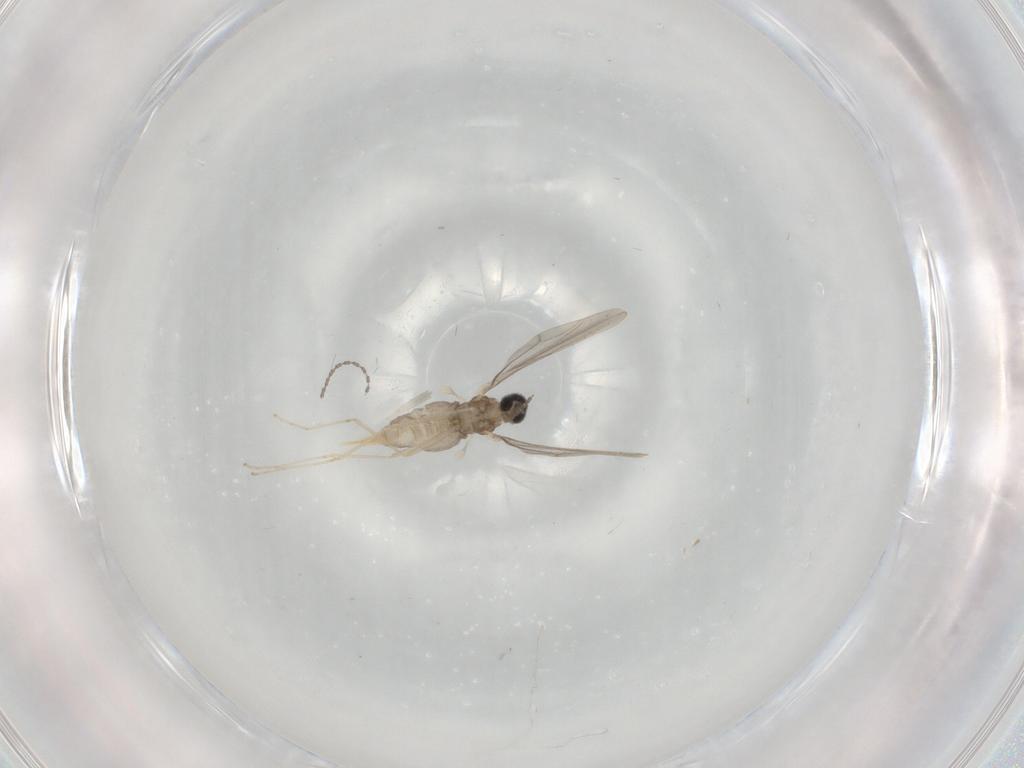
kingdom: Animalia
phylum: Arthropoda
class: Insecta
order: Diptera
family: Cecidomyiidae
